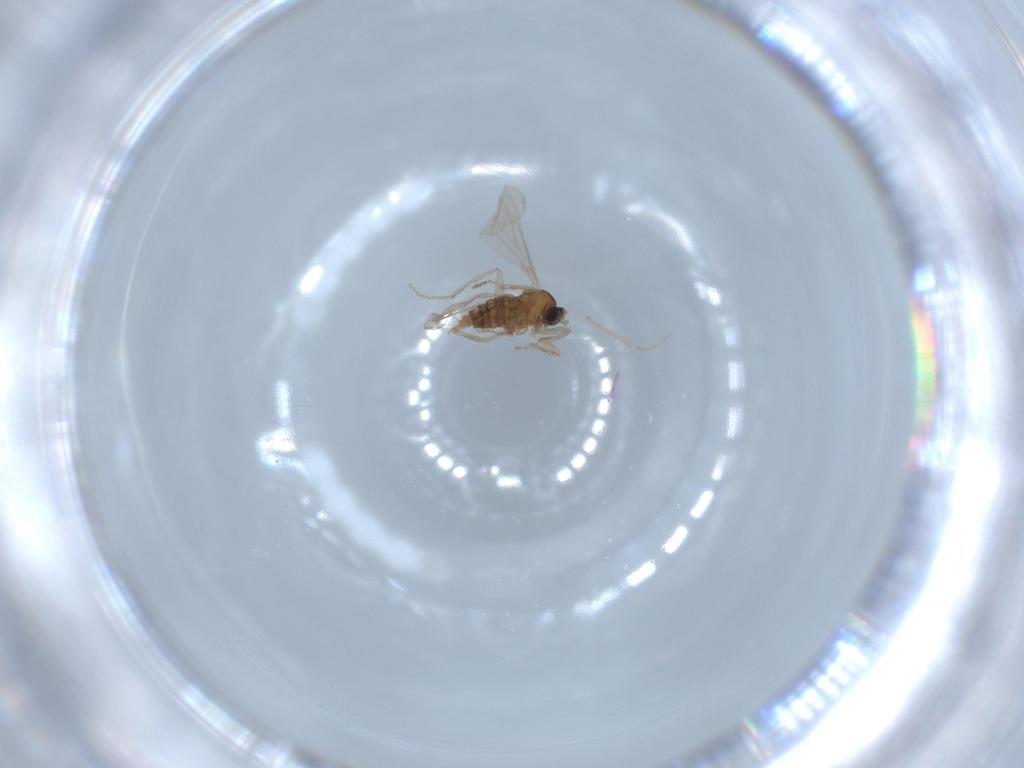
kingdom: Animalia
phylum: Arthropoda
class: Insecta
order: Diptera
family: Cecidomyiidae
